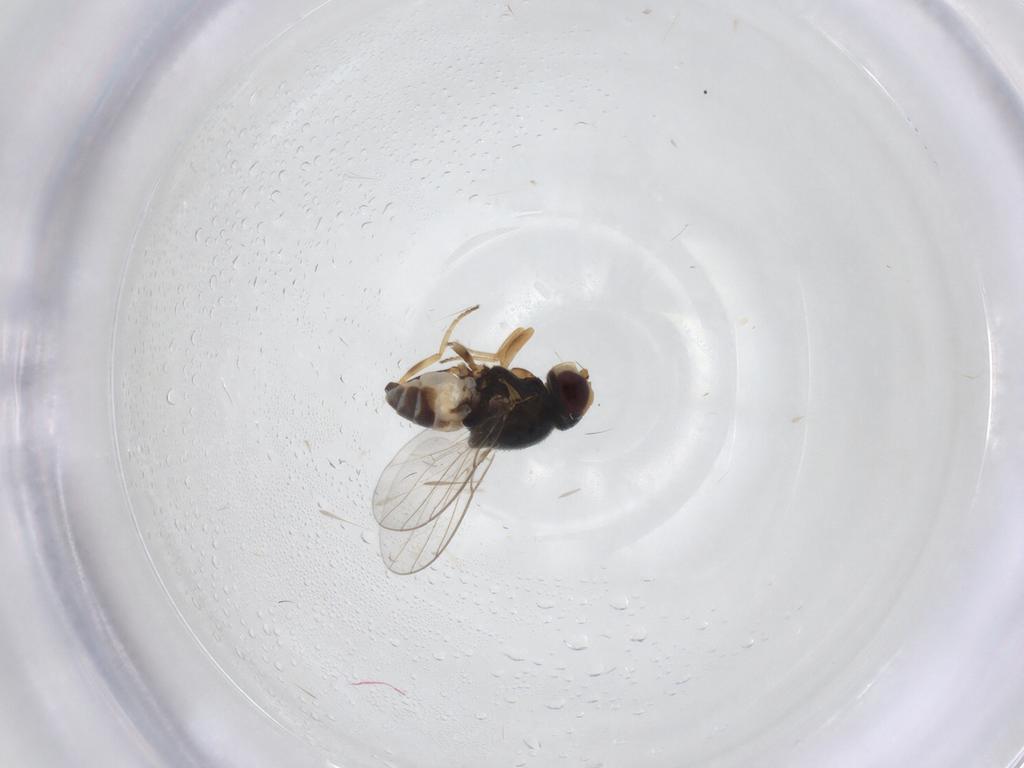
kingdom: Animalia
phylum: Arthropoda
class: Insecta
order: Diptera
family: Chloropidae
